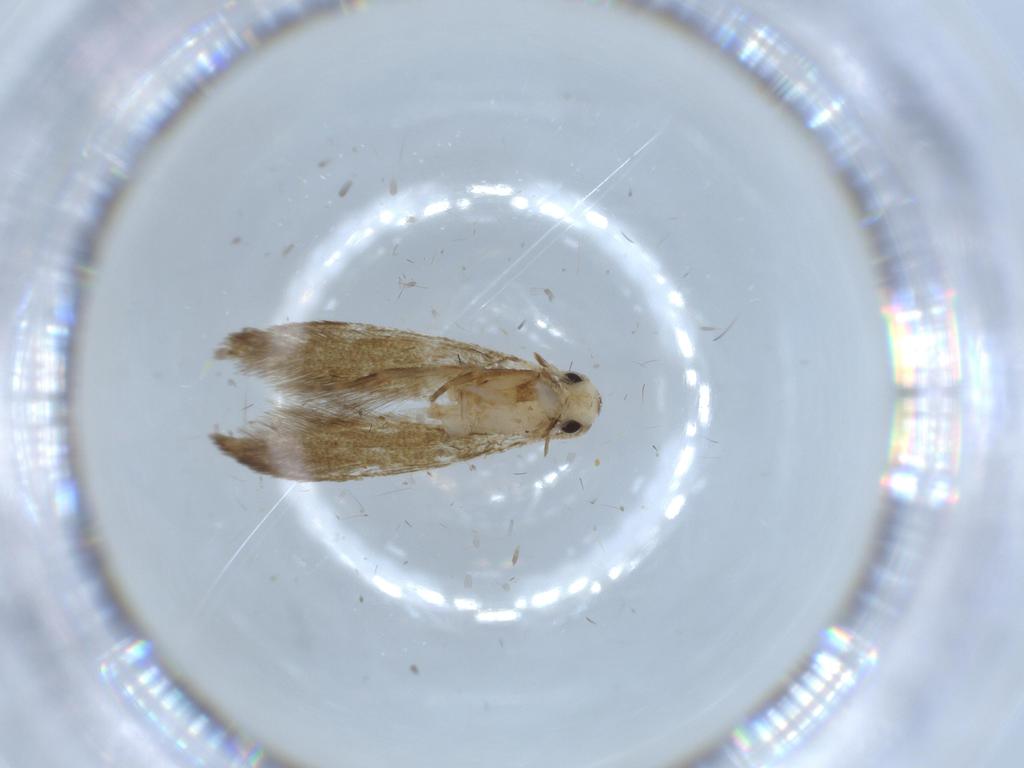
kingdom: Animalia
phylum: Arthropoda
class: Insecta
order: Lepidoptera
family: Tineidae
